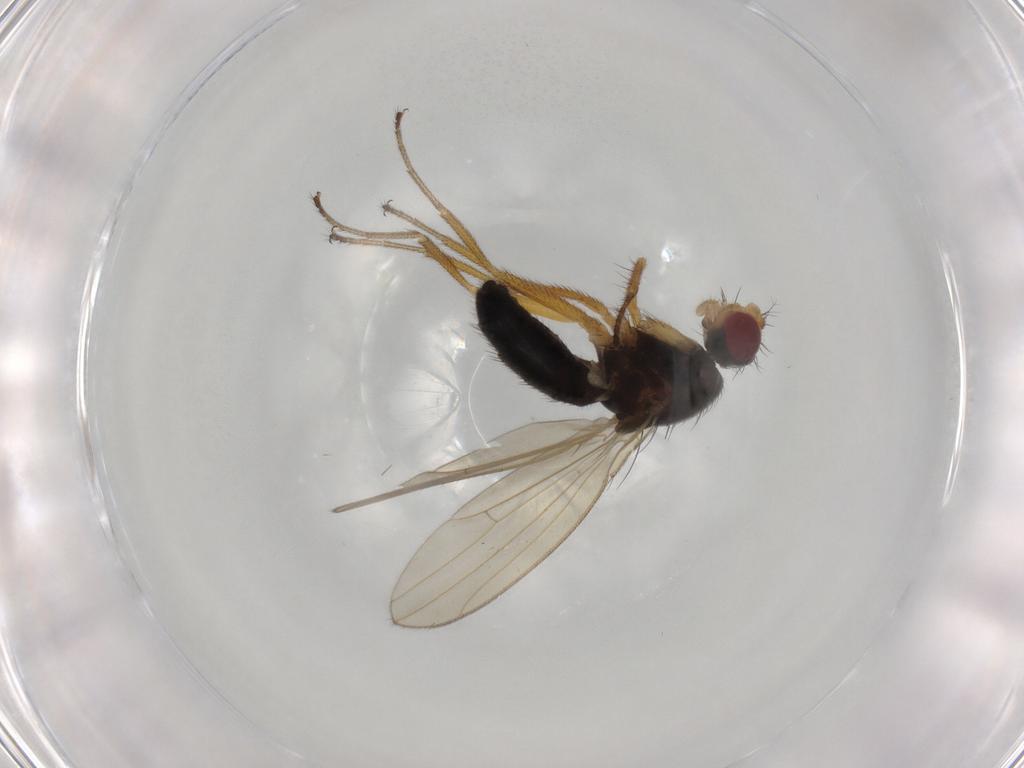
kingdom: Animalia
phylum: Arthropoda
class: Insecta
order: Diptera
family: Drosophilidae
